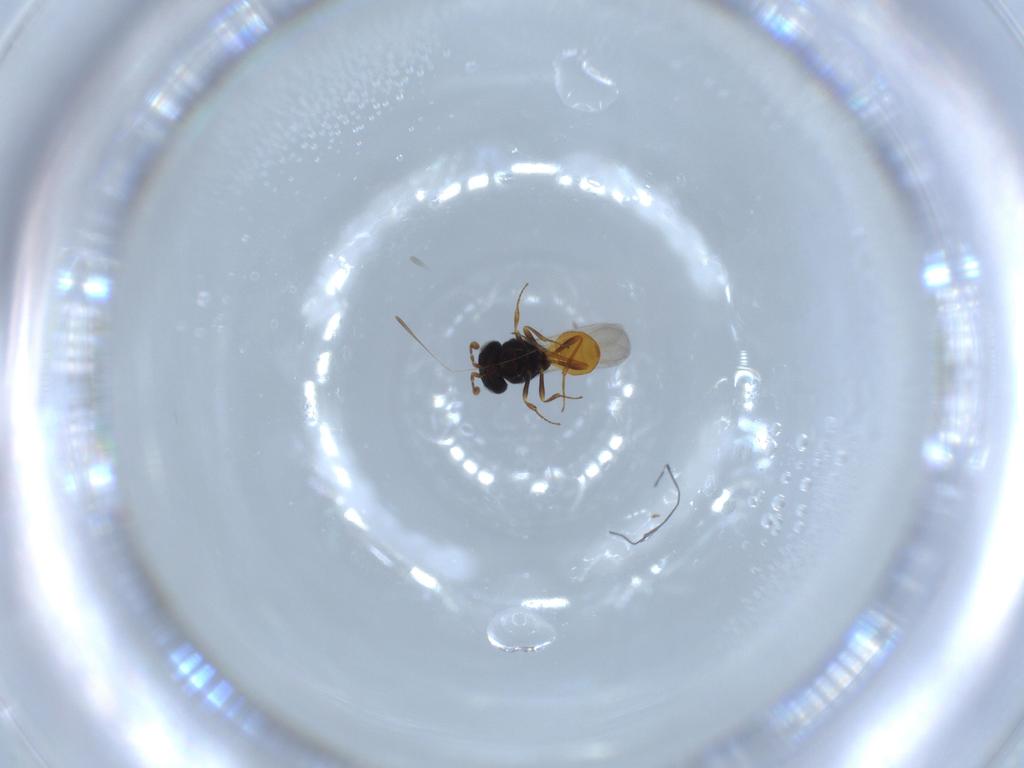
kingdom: Animalia
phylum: Arthropoda
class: Insecta
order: Hymenoptera
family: Scelionidae
